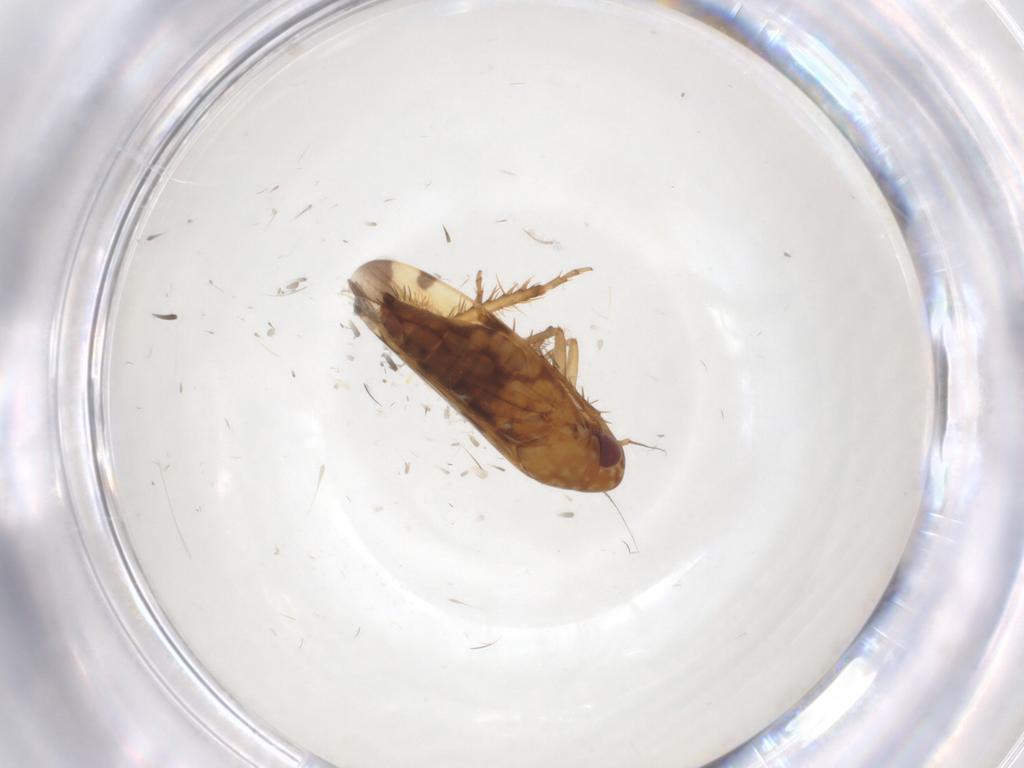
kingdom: Animalia
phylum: Arthropoda
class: Insecta
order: Hemiptera
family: Cicadellidae
